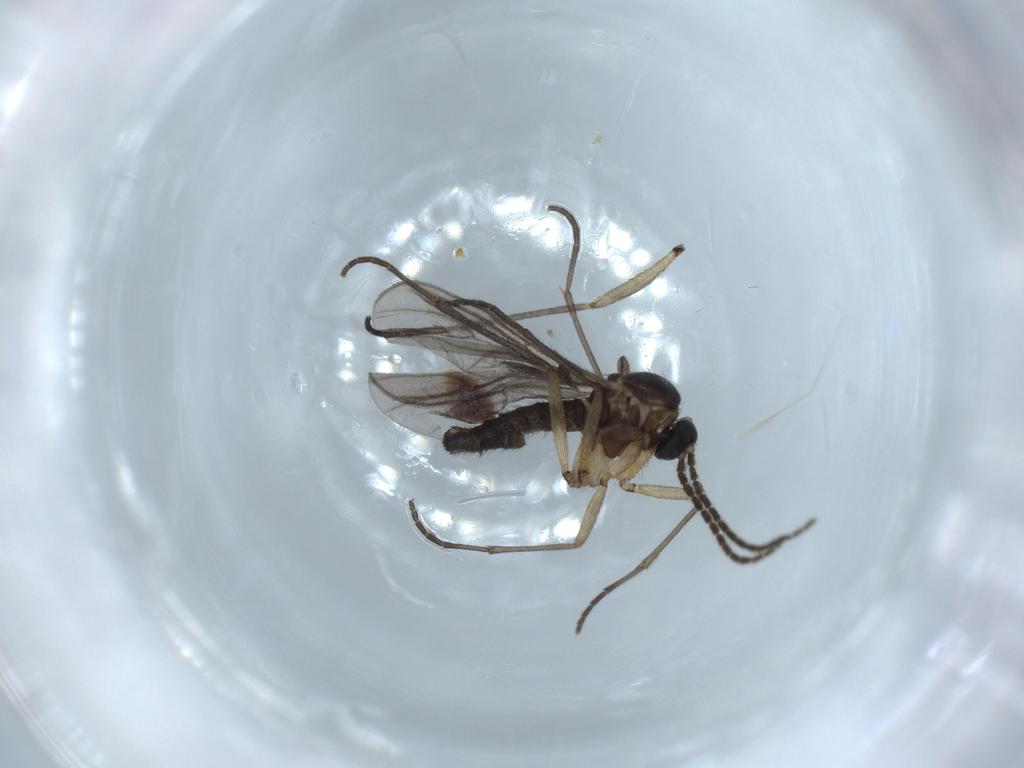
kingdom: Animalia
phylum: Arthropoda
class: Insecta
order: Diptera
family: Sciaridae
